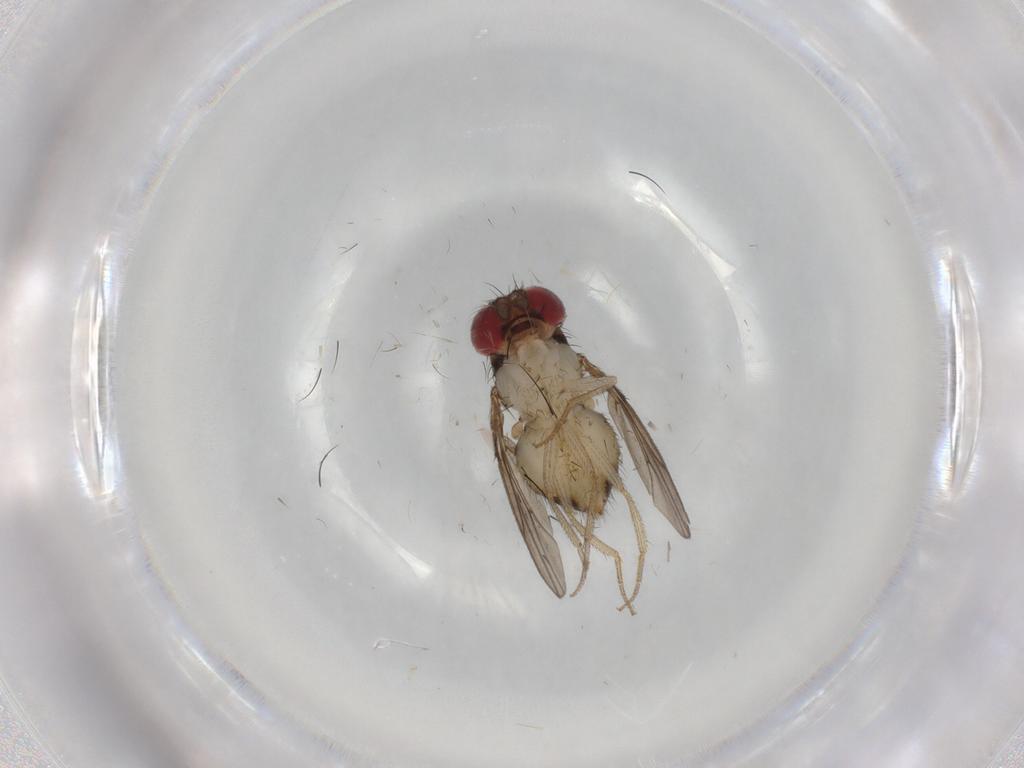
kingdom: Animalia
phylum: Arthropoda
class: Insecta
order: Diptera
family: Drosophilidae
